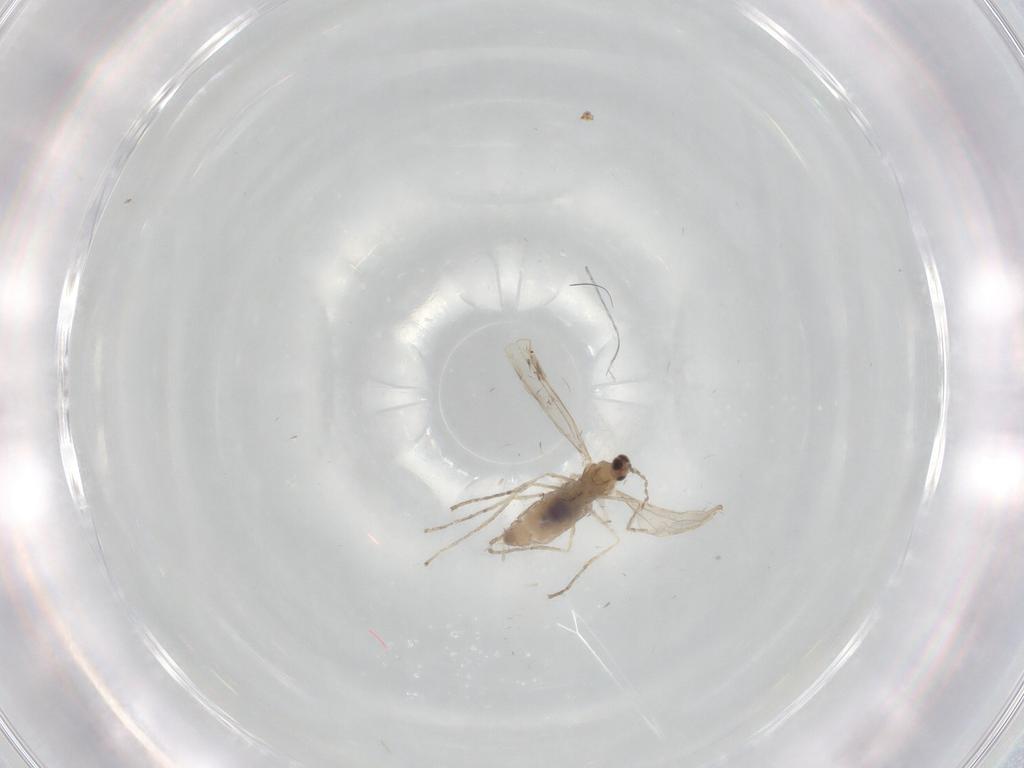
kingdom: Animalia
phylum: Arthropoda
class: Insecta
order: Diptera
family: Cecidomyiidae
